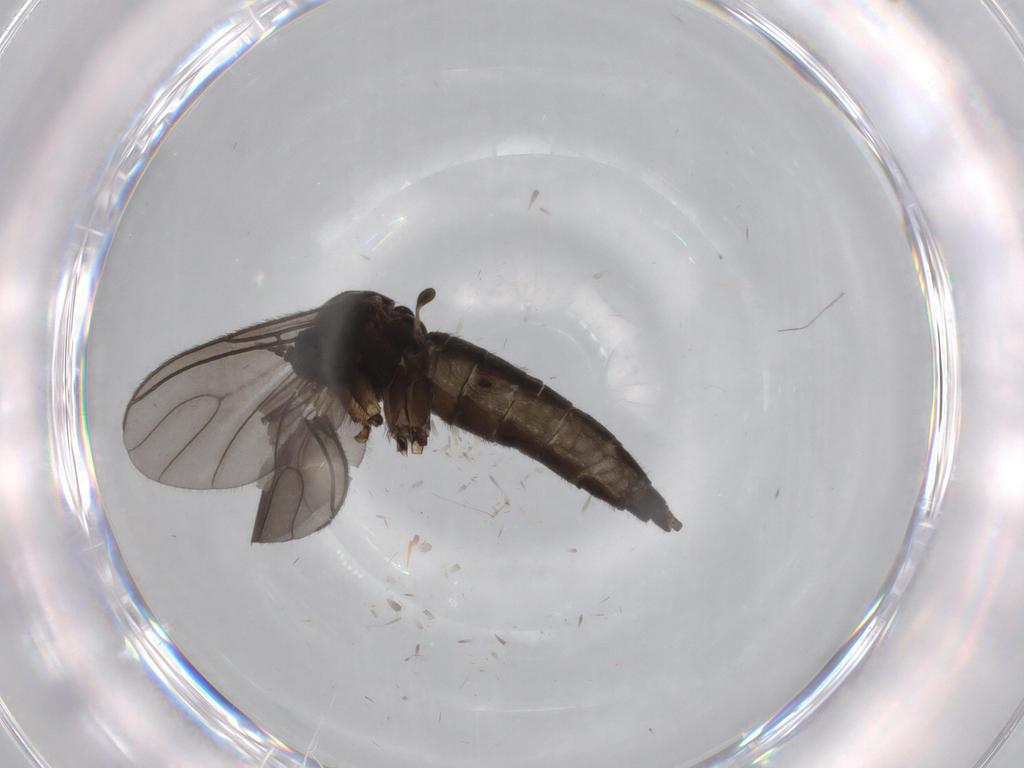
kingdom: Animalia
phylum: Arthropoda
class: Insecta
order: Diptera
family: Sciaridae
